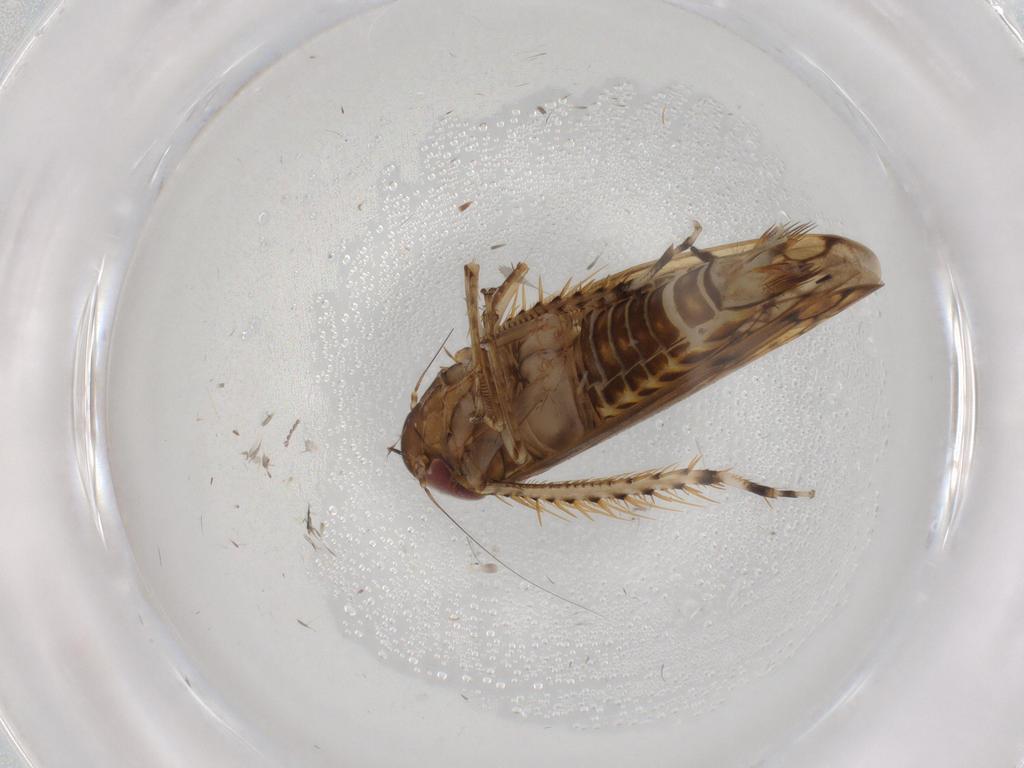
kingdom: Animalia
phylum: Arthropoda
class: Insecta
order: Hemiptera
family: Cicadellidae
